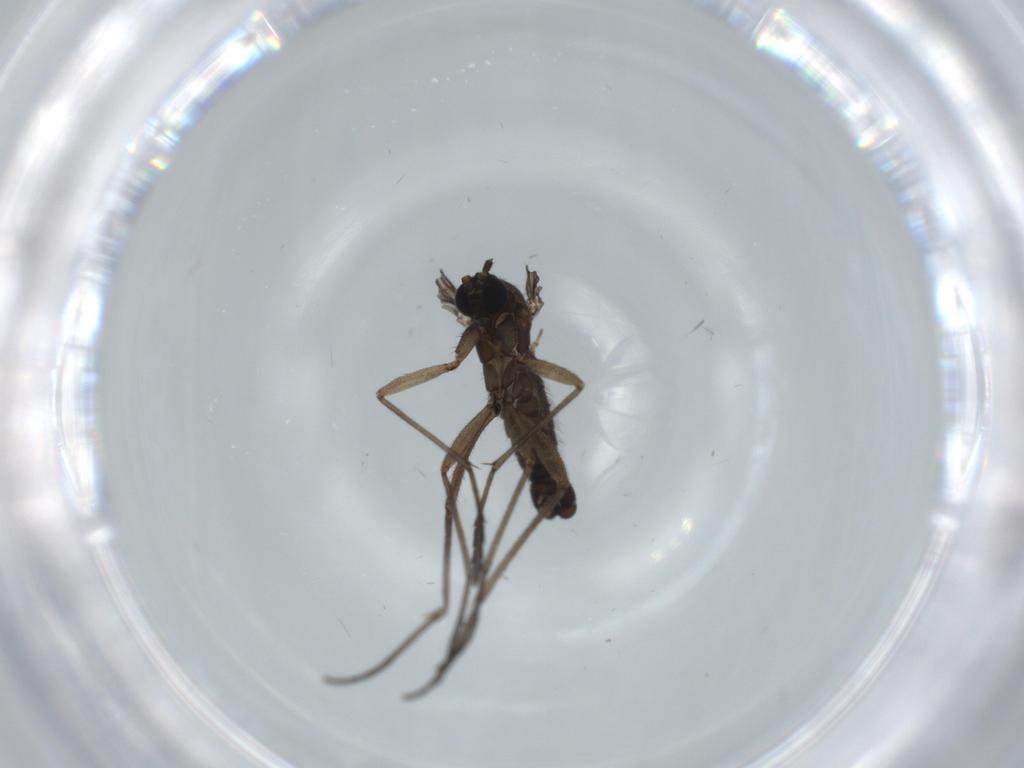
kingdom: Animalia
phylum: Arthropoda
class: Insecta
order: Diptera
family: Sciaridae
